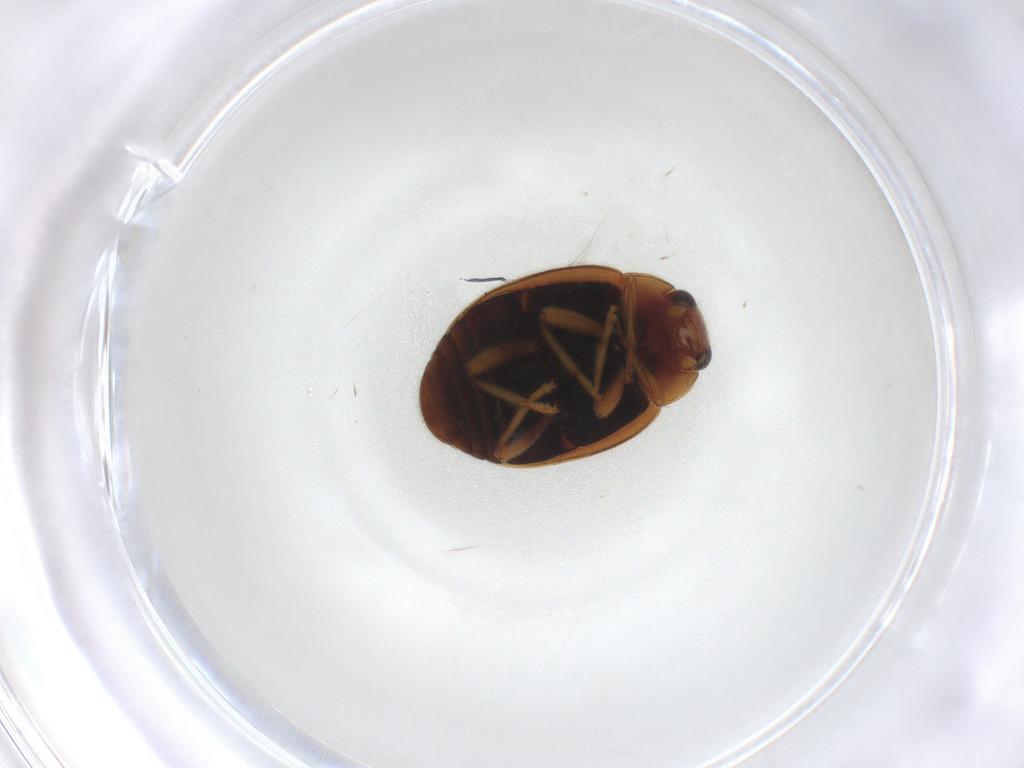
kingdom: Animalia
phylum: Arthropoda
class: Insecta
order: Coleoptera
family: Coccinellidae
